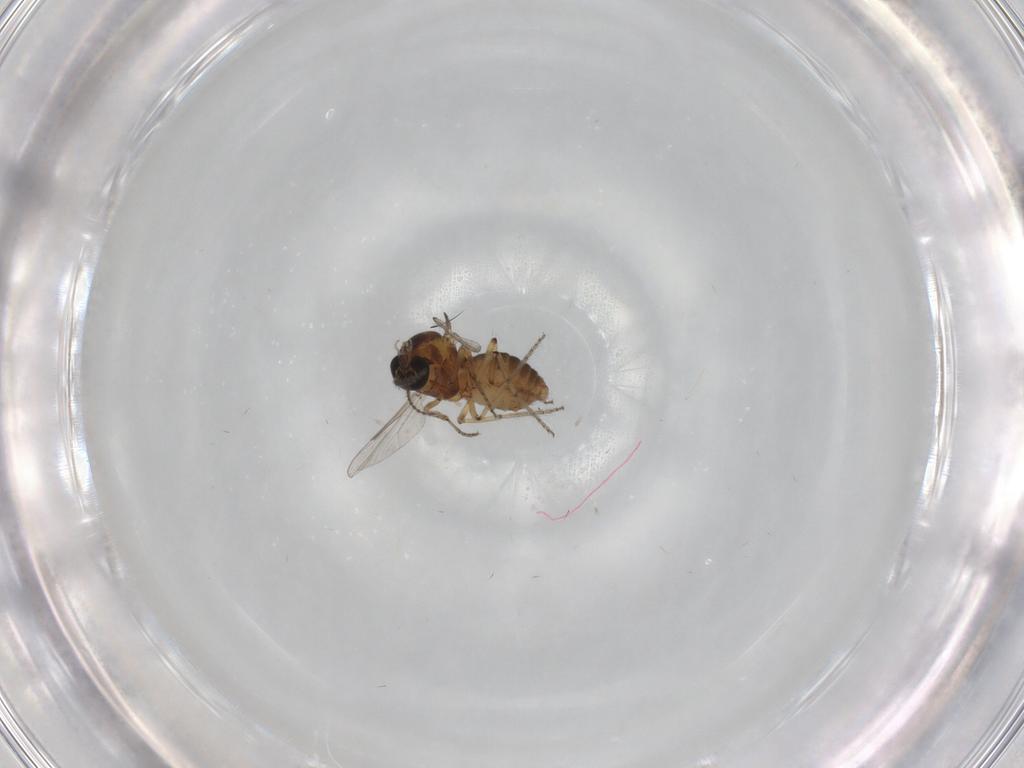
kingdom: Animalia
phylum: Arthropoda
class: Insecta
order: Diptera
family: Ceratopogonidae
